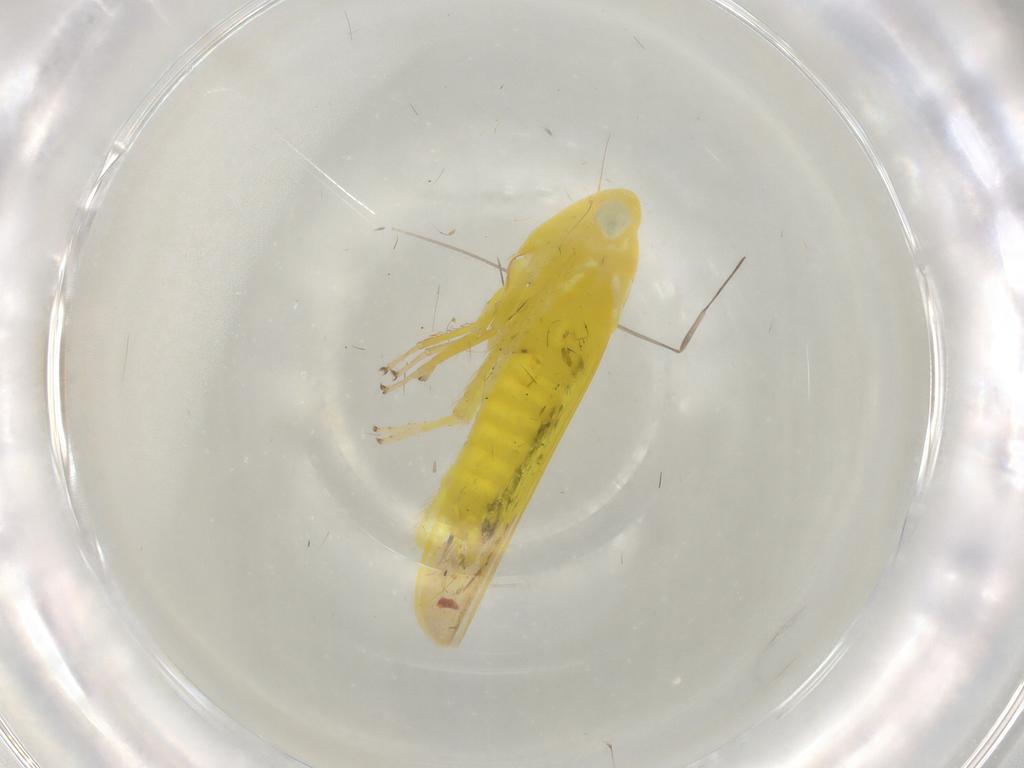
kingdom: Animalia
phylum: Arthropoda
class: Insecta
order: Hemiptera
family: Cicadellidae
